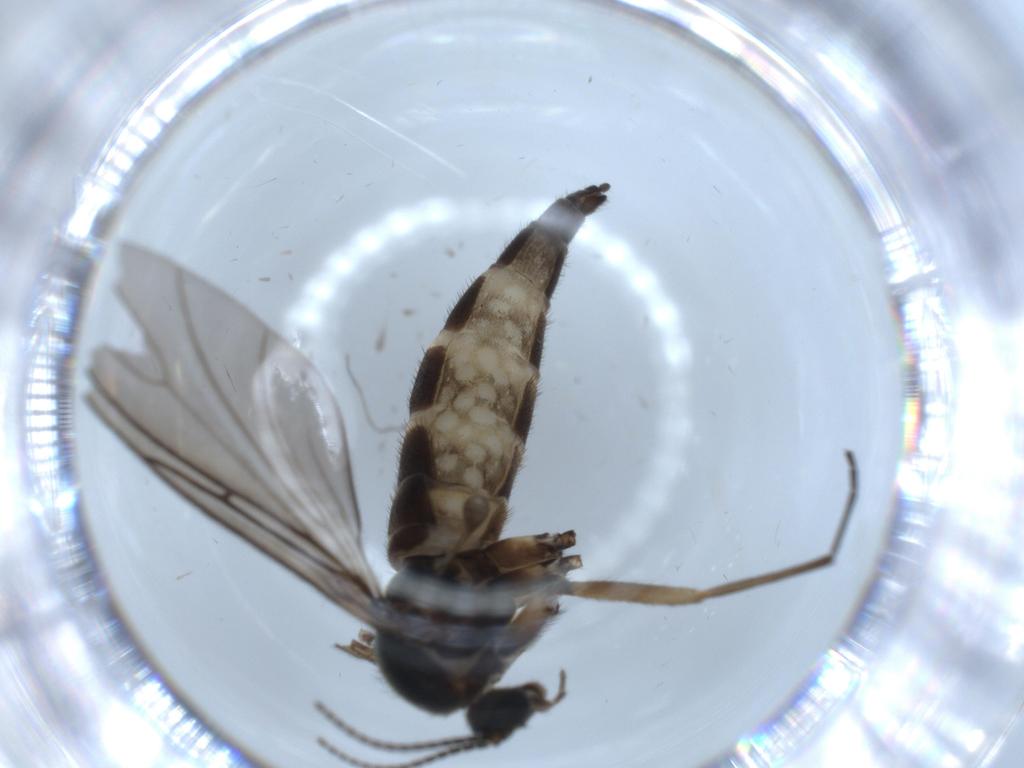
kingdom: Animalia
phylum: Arthropoda
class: Insecta
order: Diptera
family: Sciaridae
